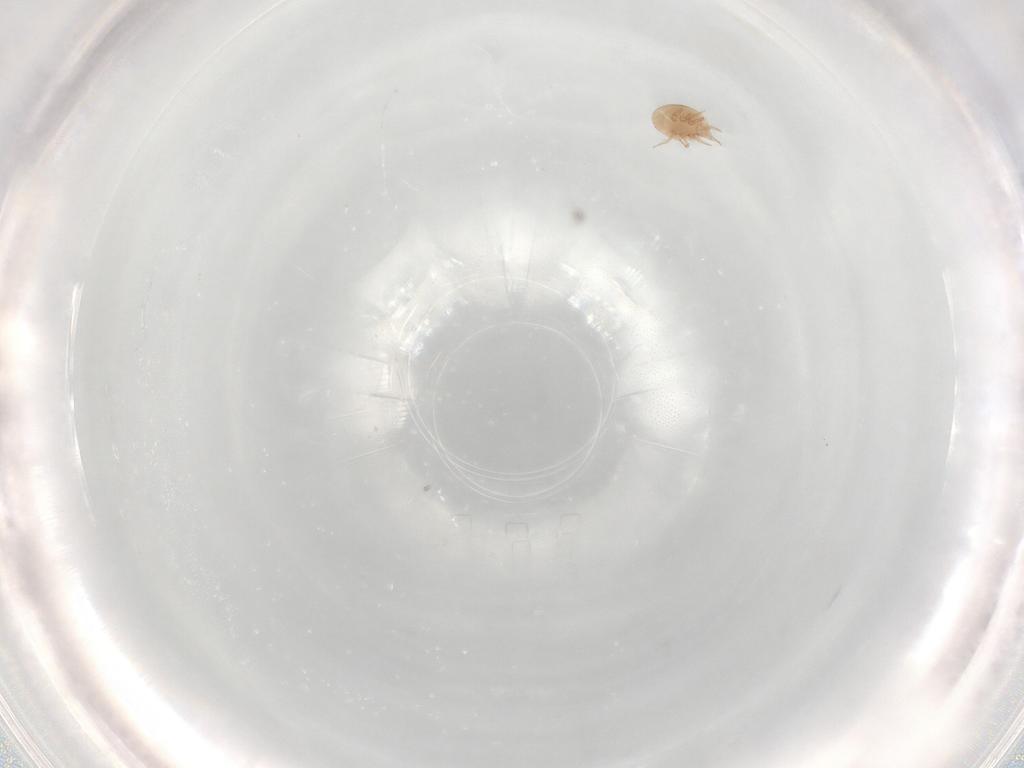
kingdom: Animalia
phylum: Arthropoda
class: Arachnida
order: Mesostigmata
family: Trematuridae
